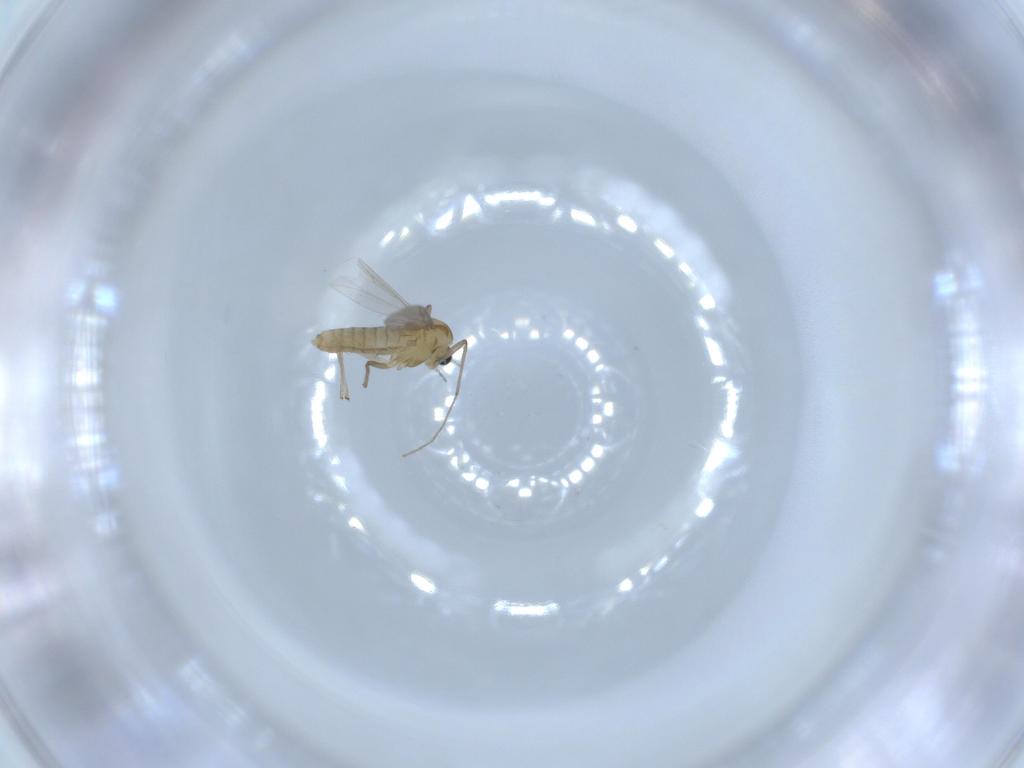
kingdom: Animalia
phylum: Arthropoda
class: Insecta
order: Diptera
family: Chironomidae
